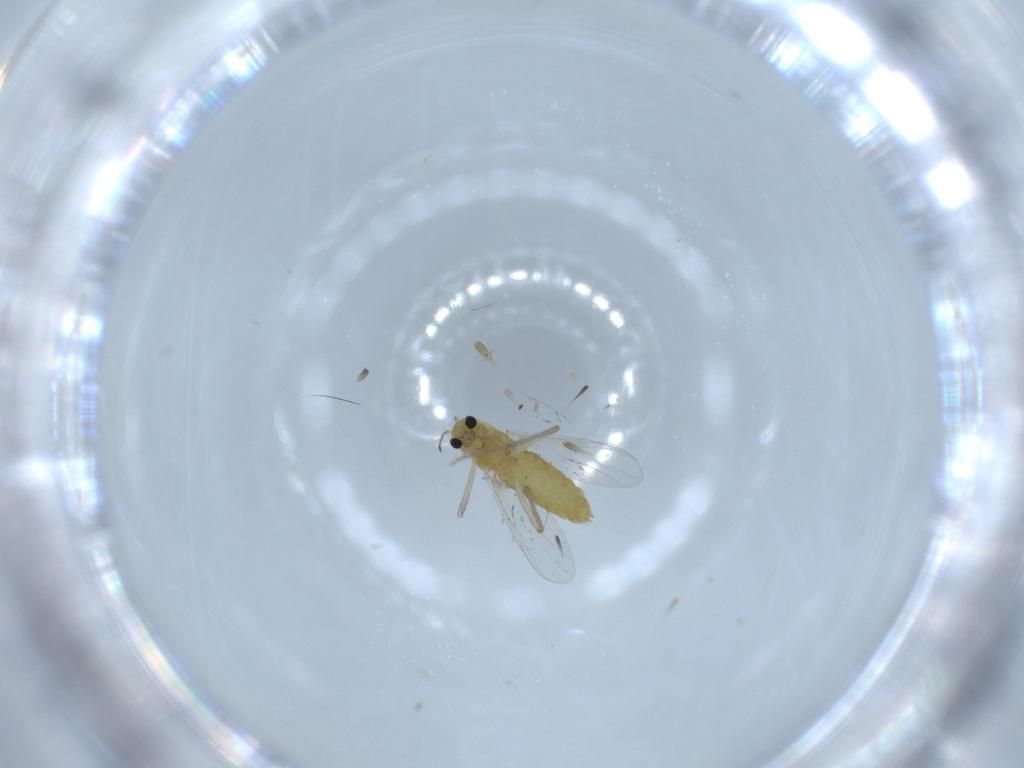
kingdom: Animalia
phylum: Arthropoda
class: Insecta
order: Diptera
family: Chironomidae
